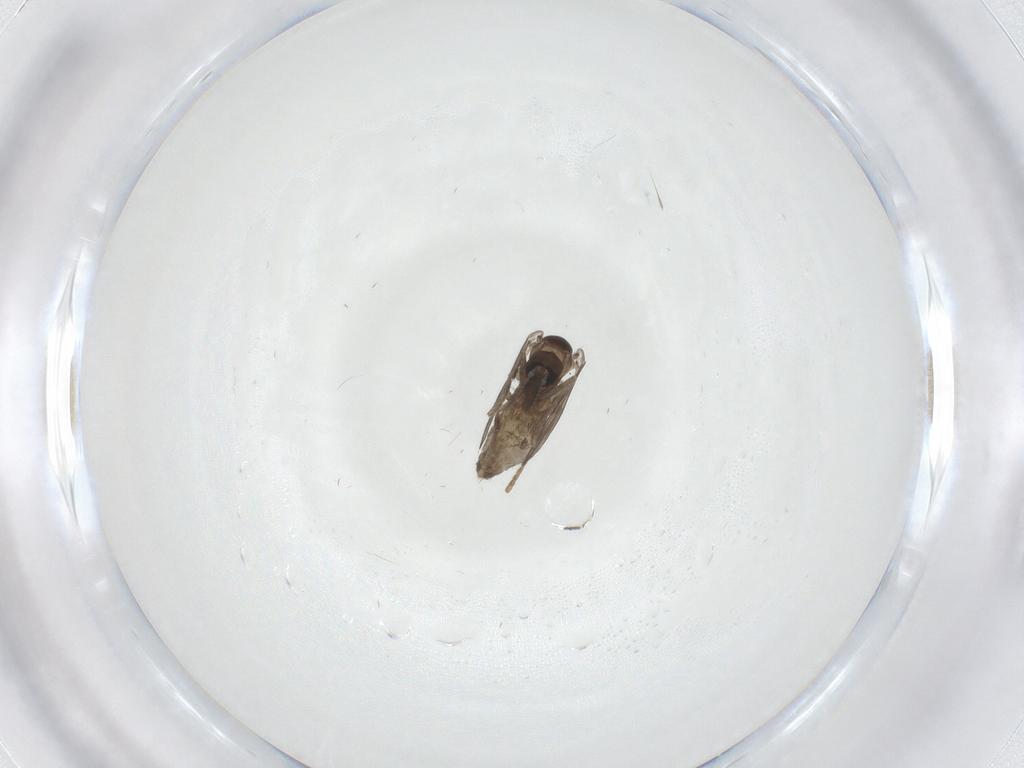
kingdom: Animalia
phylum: Arthropoda
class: Insecta
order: Diptera
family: Psychodidae
